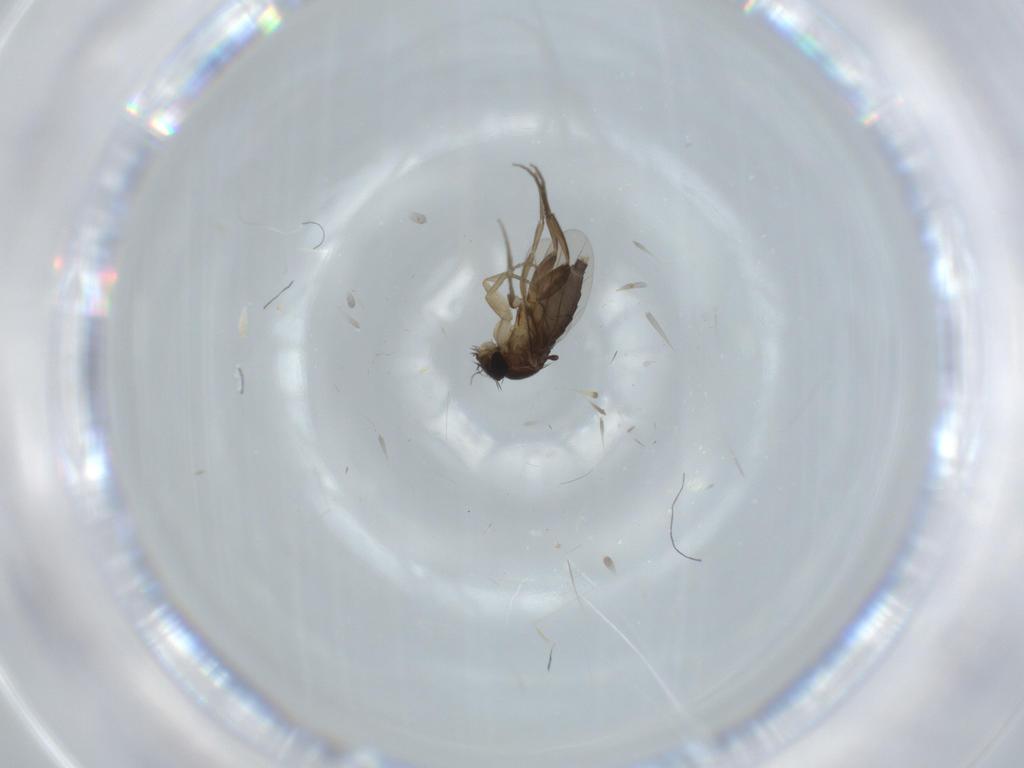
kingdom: Animalia
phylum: Arthropoda
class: Insecta
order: Diptera
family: Phoridae
